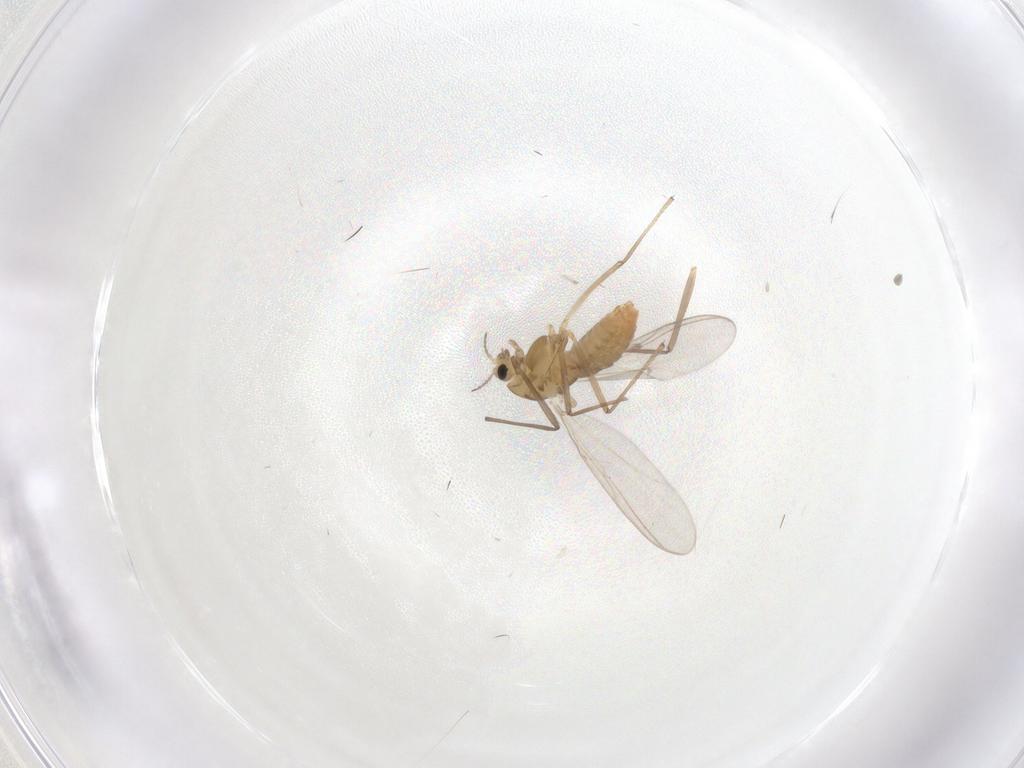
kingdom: Animalia
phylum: Arthropoda
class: Insecta
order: Diptera
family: Chironomidae
